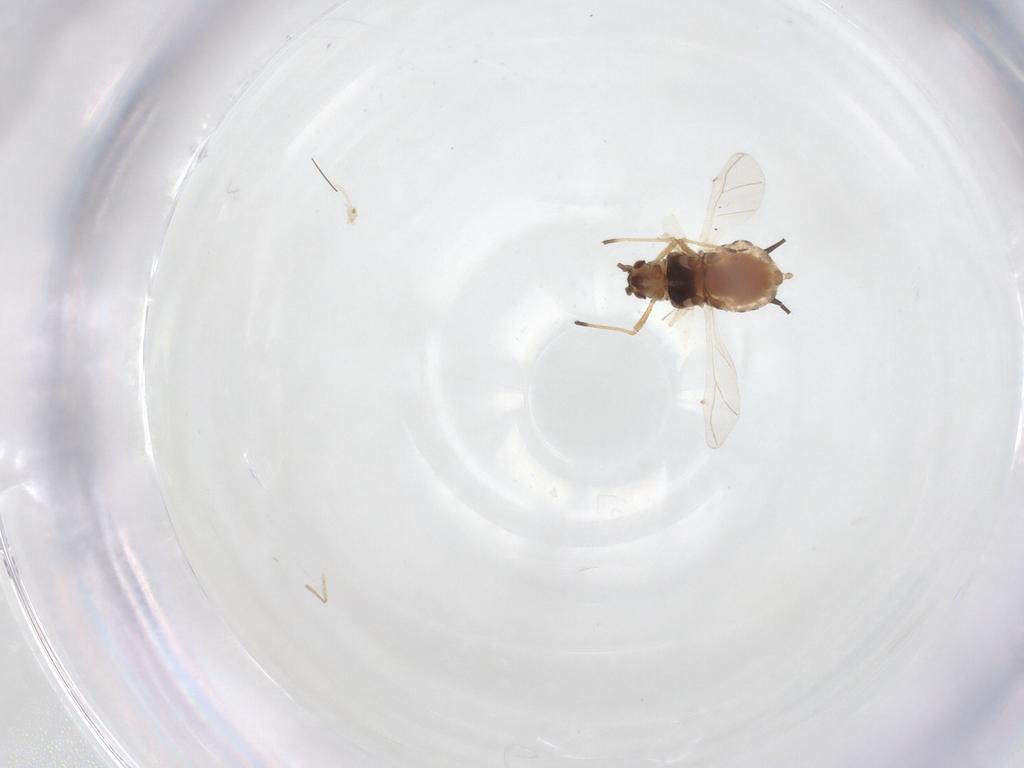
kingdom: Animalia
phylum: Arthropoda
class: Insecta
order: Hemiptera
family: Aphididae
